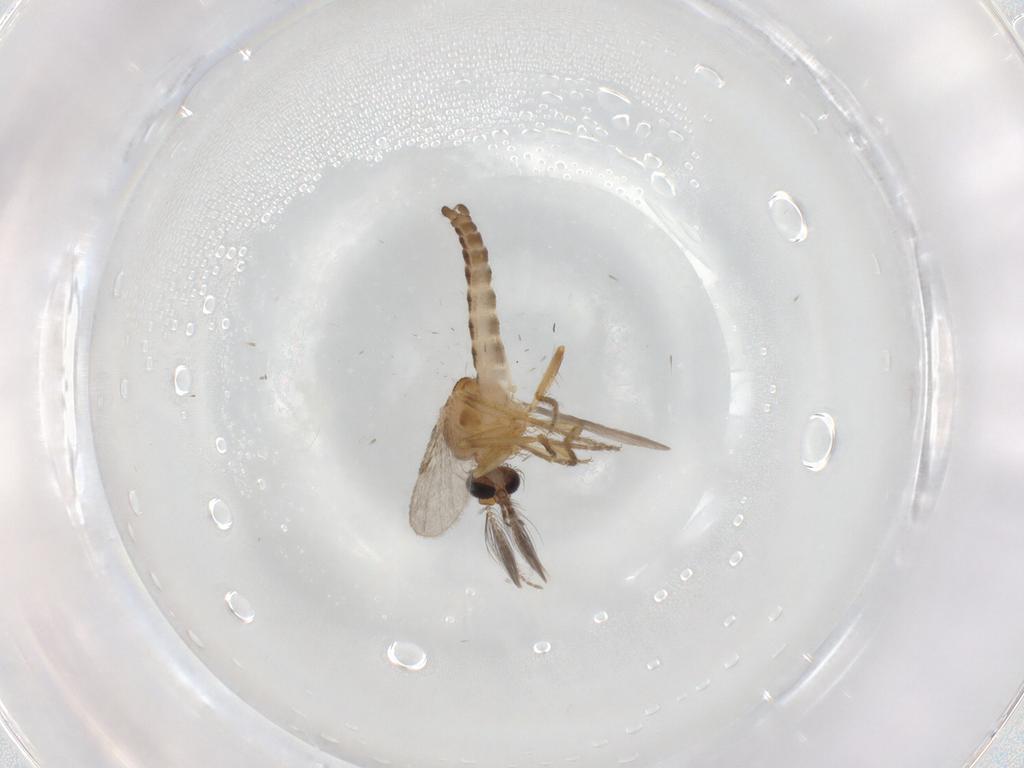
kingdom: Animalia
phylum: Arthropoda
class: Insecta
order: Diptera
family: Ceratopogonidae
